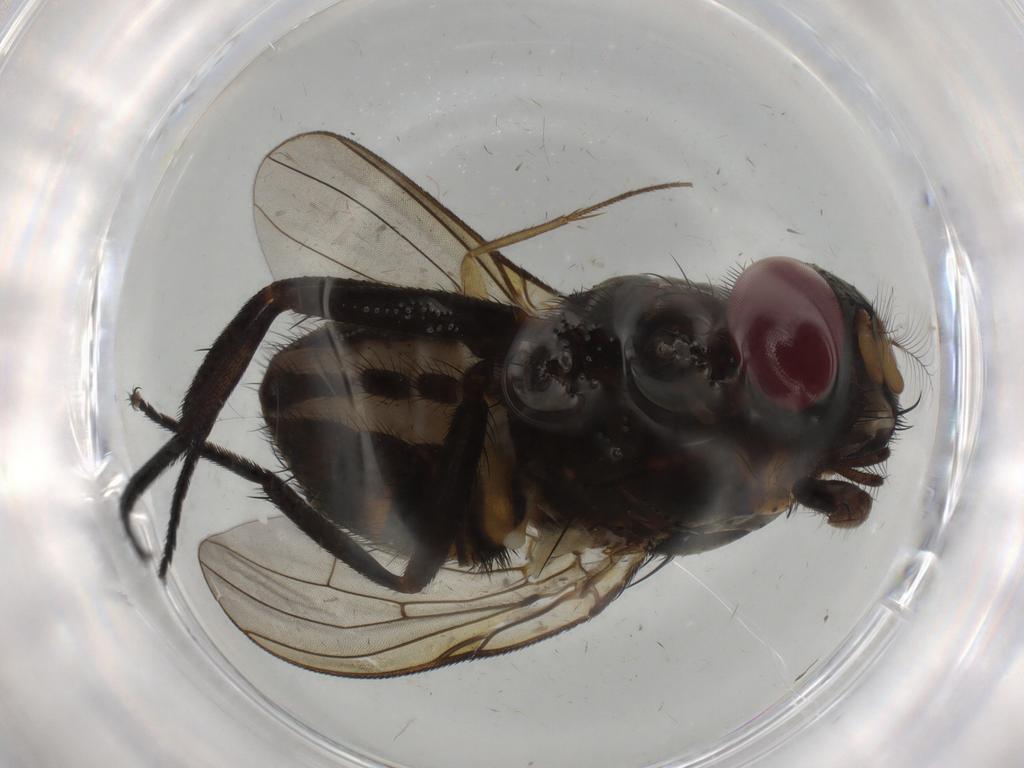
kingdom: Animalia
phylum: Arthropoda
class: Insecta
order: Diptera
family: Muscidae
